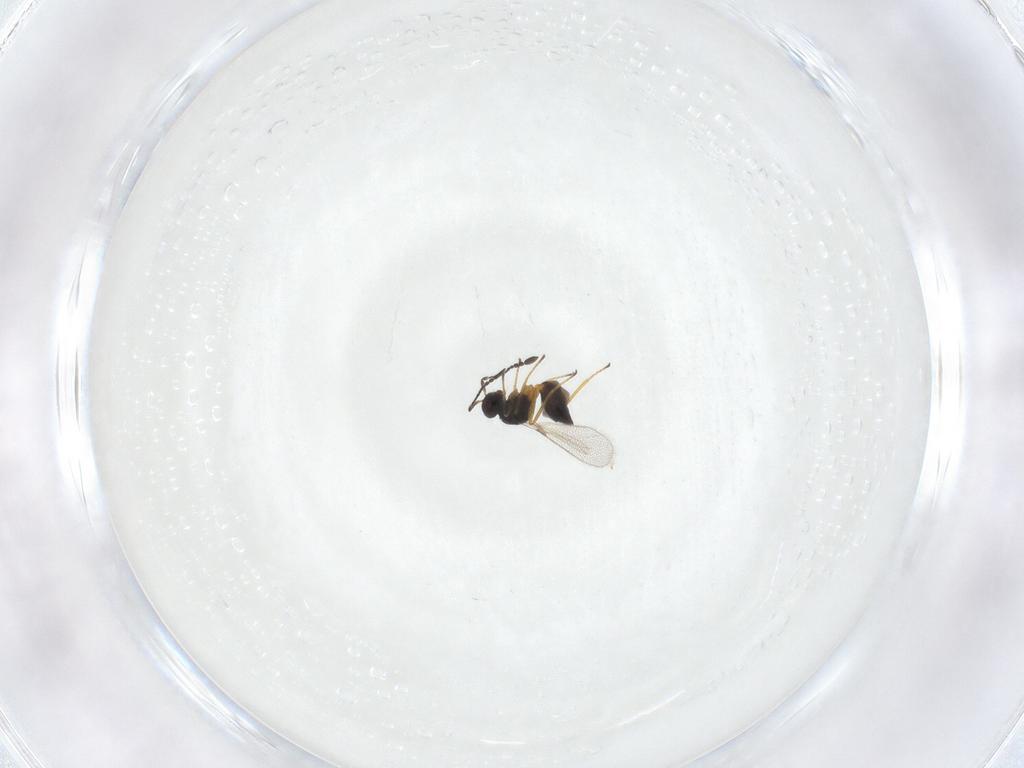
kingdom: Animalia
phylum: Arthropoda
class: Insecta
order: Hymenoptera
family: Mymaridae
